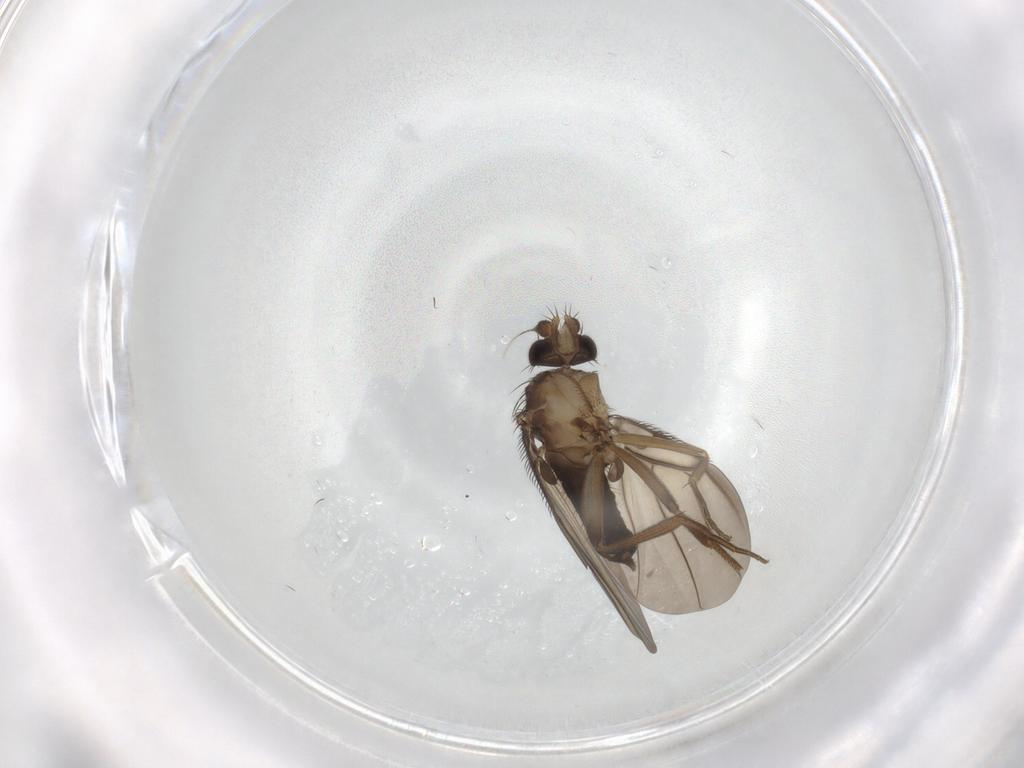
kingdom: Animalia
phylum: Arthropoda
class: Insecta
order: Diptera
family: Phoridae
